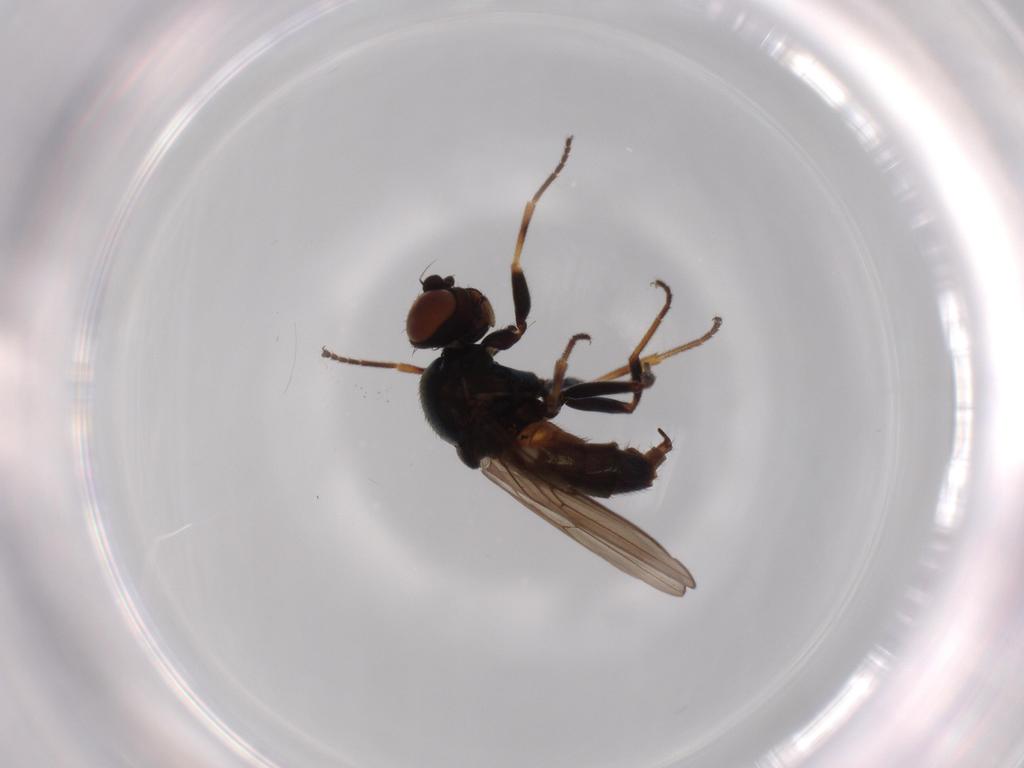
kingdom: Animalia
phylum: Arthropoda
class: Insecta
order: Diptera
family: Chloropidae
